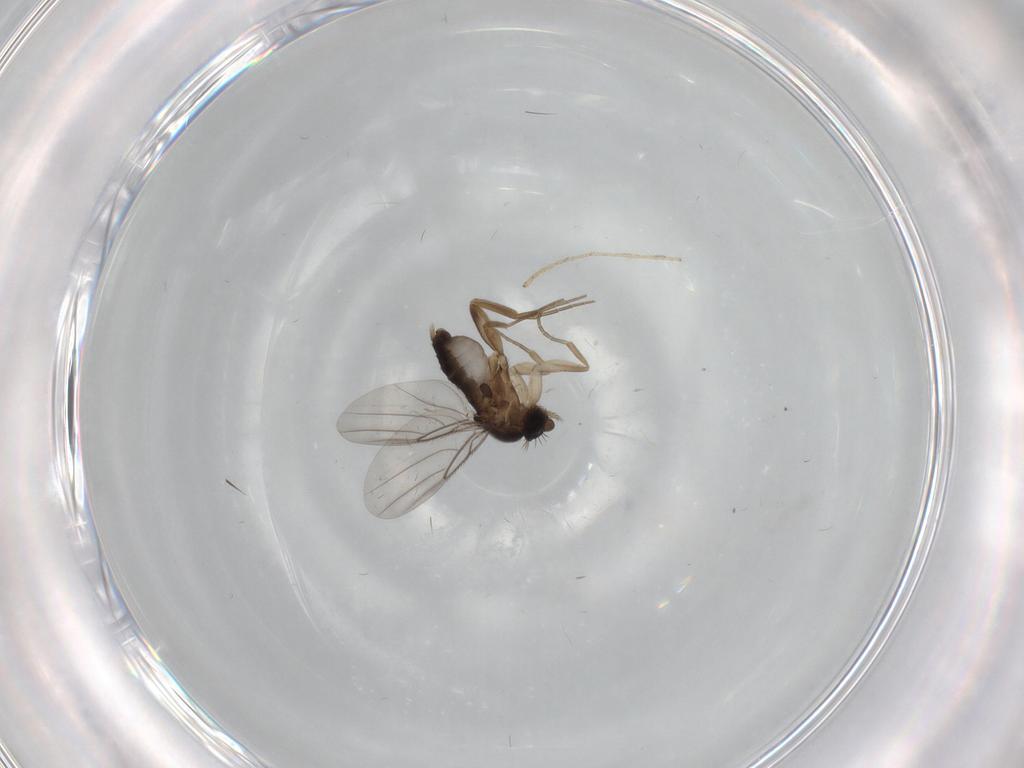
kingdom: Animalia
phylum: Arthropoda
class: Insecta
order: Diptera
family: Phoridae
